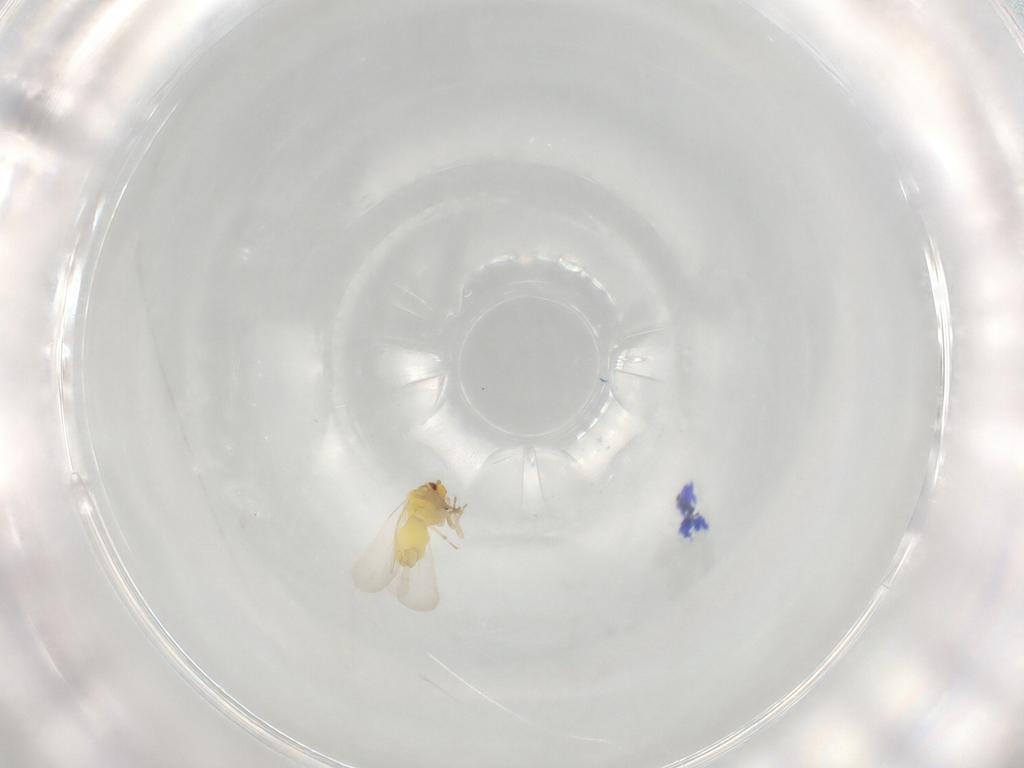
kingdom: Animalia
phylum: Arthropoda
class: Insecta
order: Hemiptera
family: Aleyrodidae
